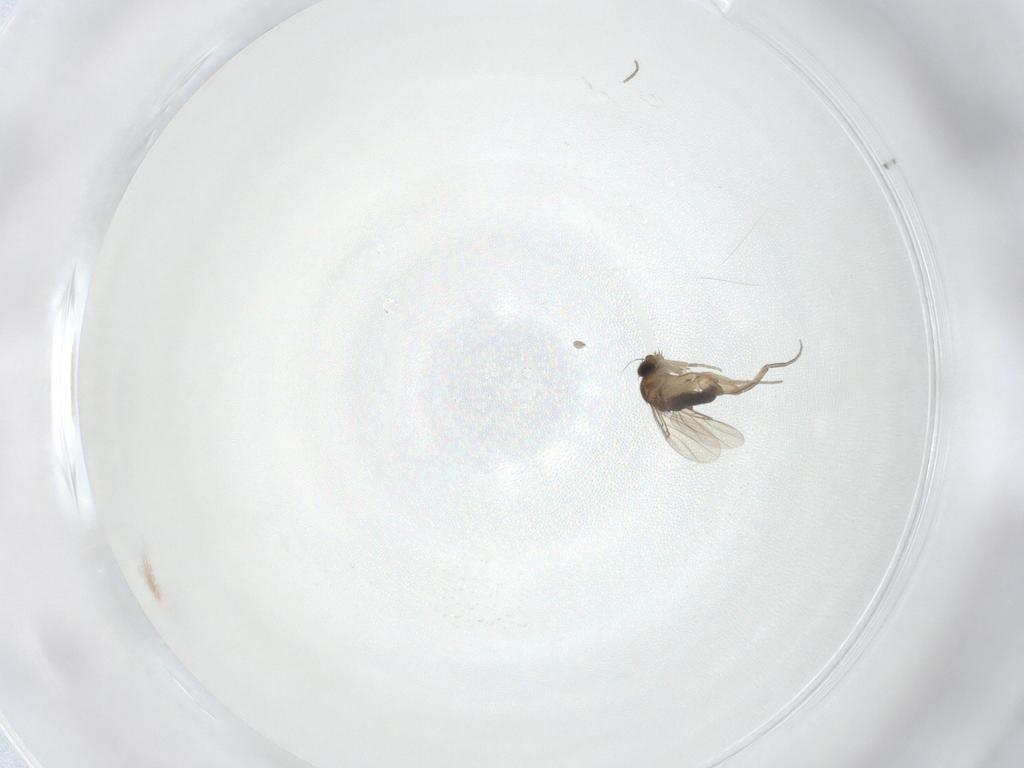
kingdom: Animalia
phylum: Arthropoda
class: Insecta
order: Diptera
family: Phoridae
